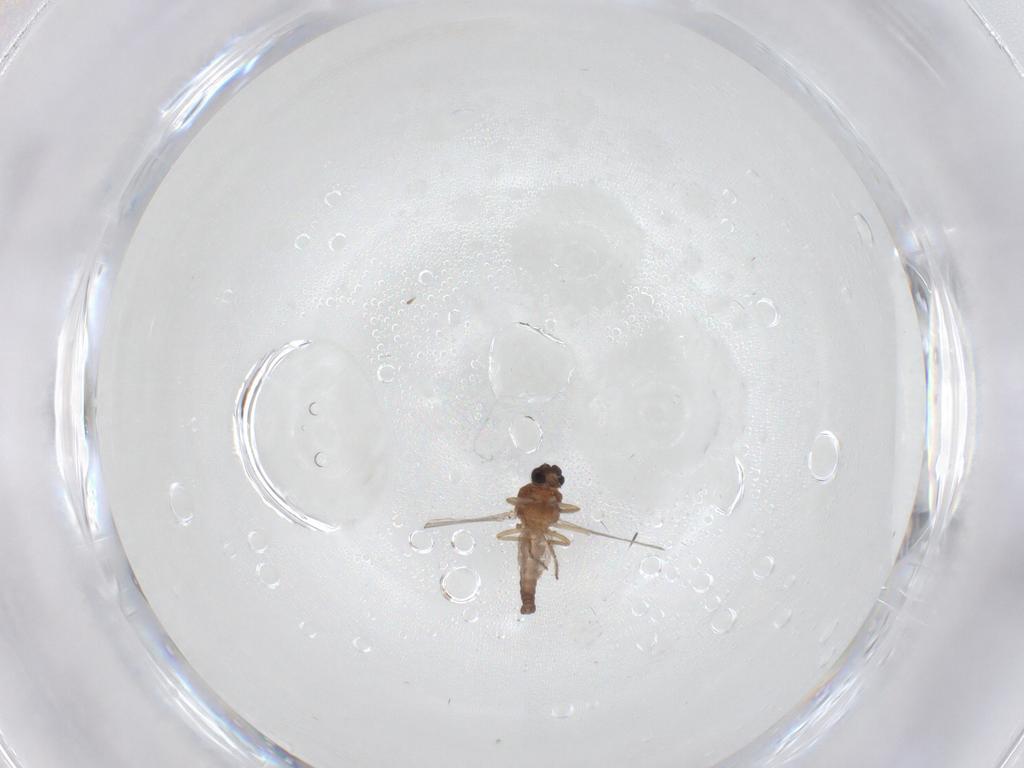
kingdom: Animalia
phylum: Arthropoda
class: Insecta
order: Diptera
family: Ceratopogonidae
